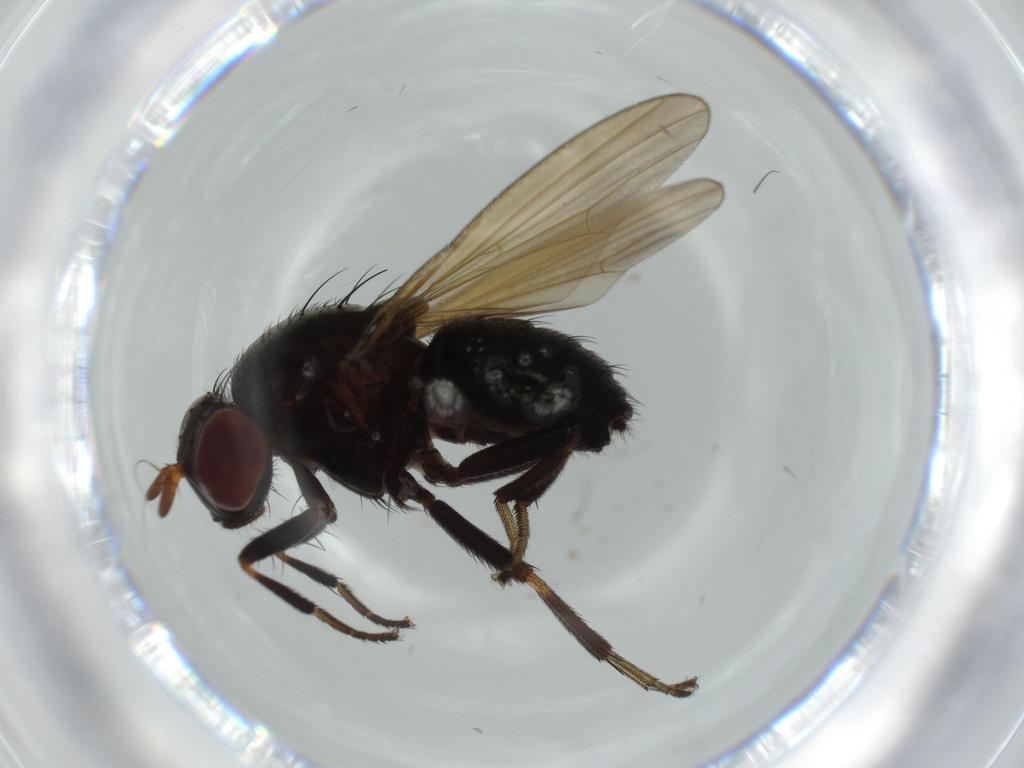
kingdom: Animalia
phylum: Arthropoda
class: Insecta
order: Diptera
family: Lauxaniidae
